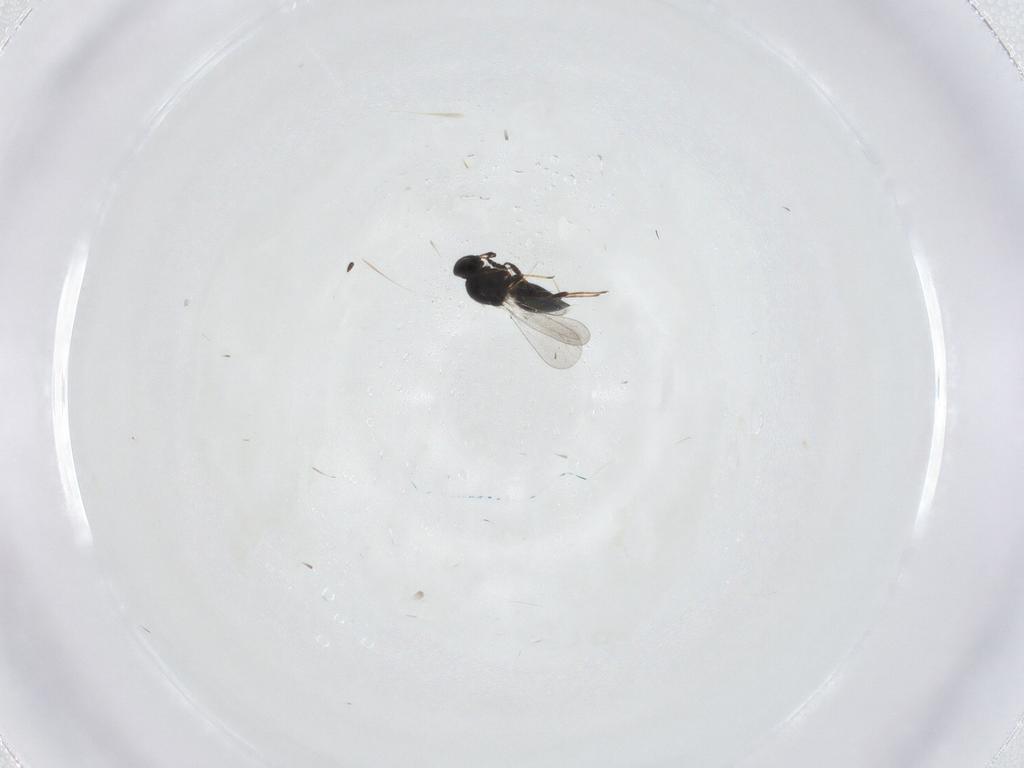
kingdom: Animalia
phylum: Arthropoda
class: Insecta
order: Hymenoptera
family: Platygastridae
